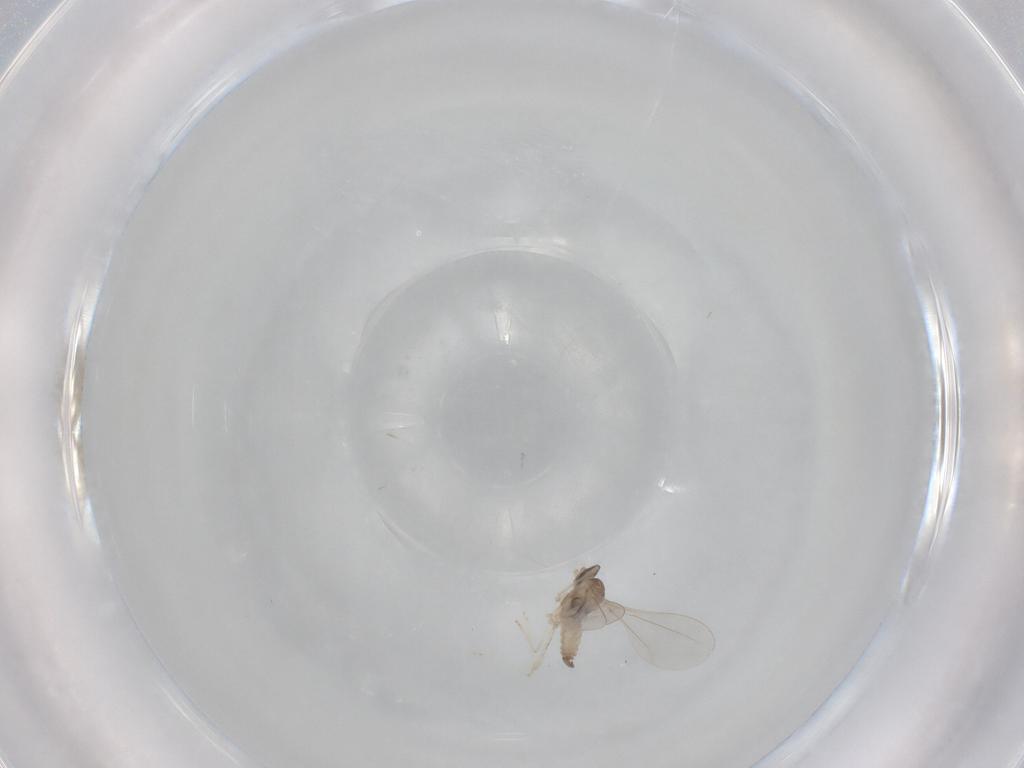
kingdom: Animalia
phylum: Arthropoda
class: Insecta
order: Diptera
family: Cecidomyiidae
